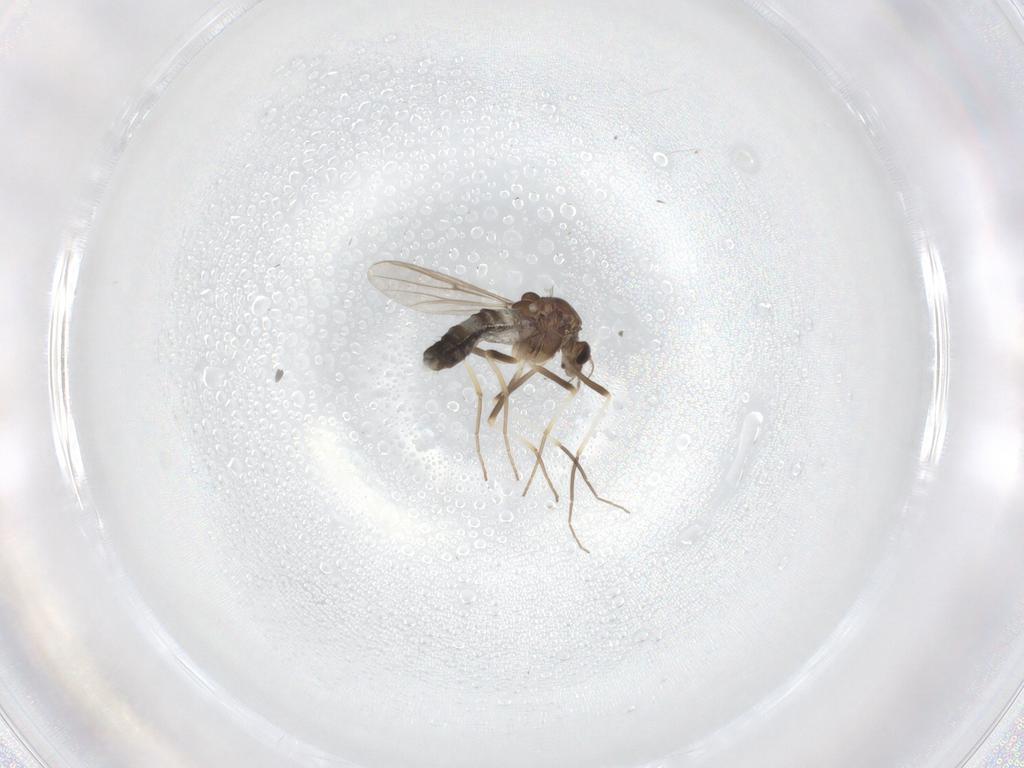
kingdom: Animalia
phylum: Arthropoda
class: Insecta
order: Diptera
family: Chironomidae
